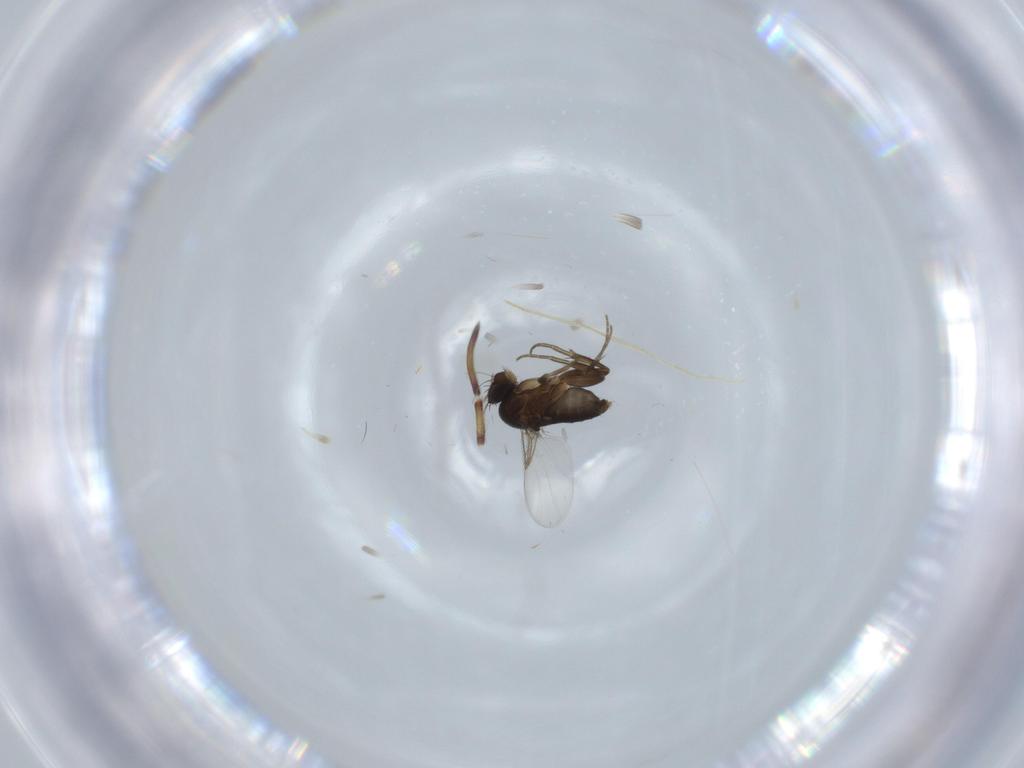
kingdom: Animalia
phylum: Arthropoda
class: Insecta
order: Diptera
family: Phoridae
